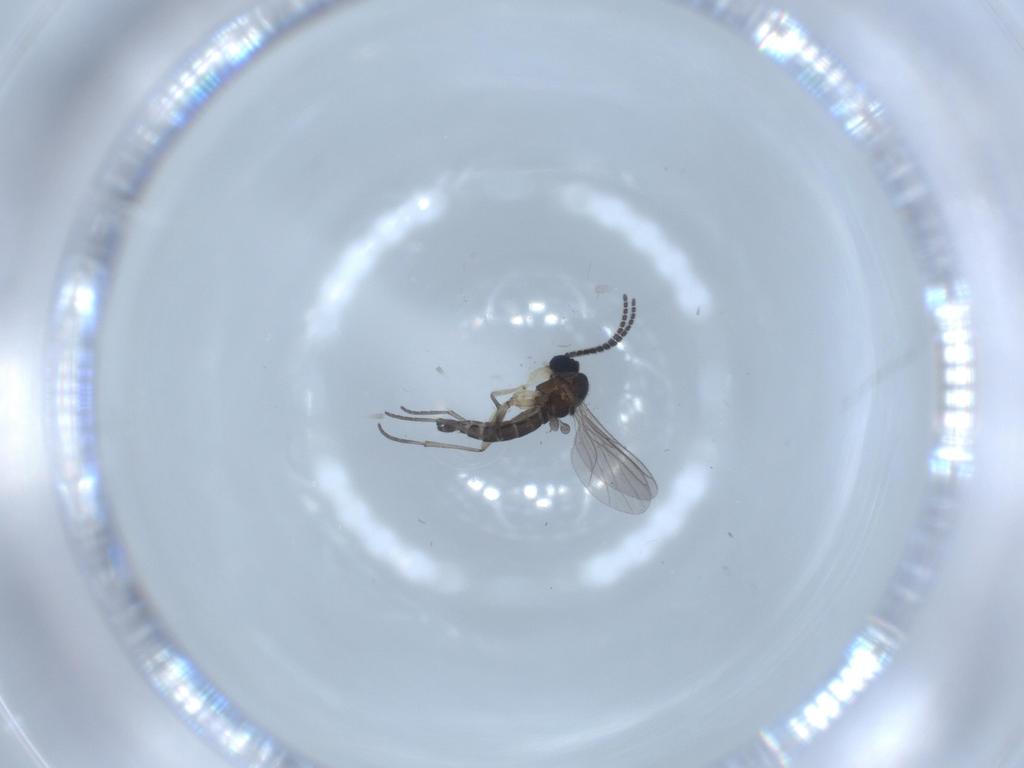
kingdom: Animalia
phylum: Arthropoda
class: Insecta
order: Diptera
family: Sciaridae
